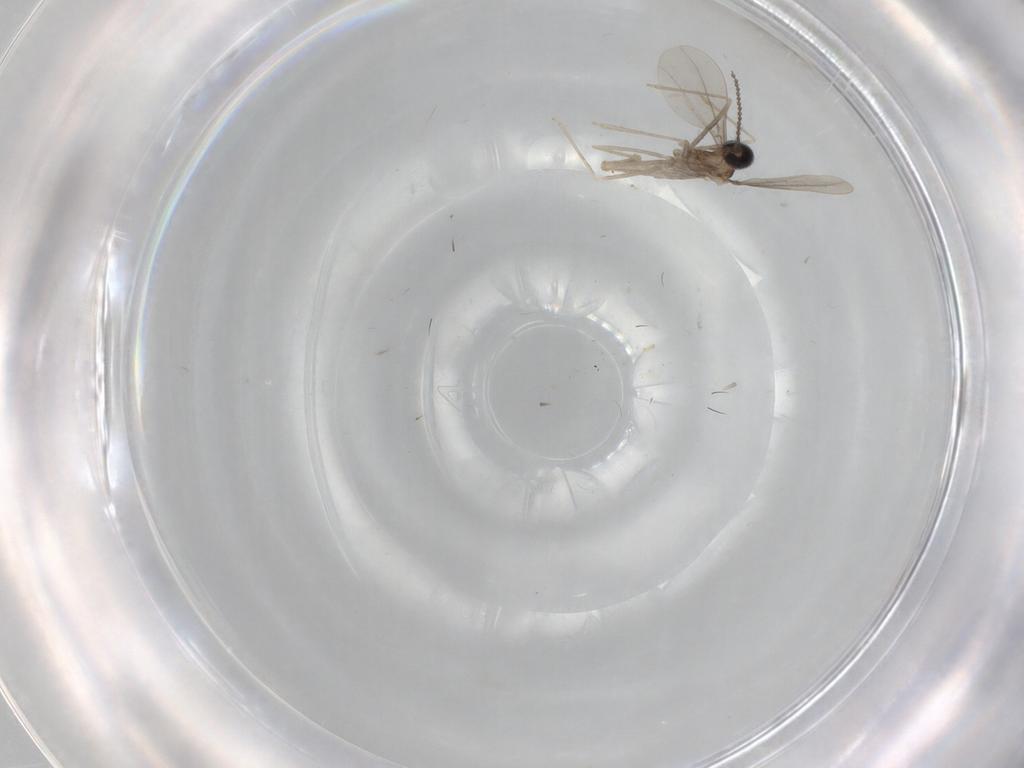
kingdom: Animalia
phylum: Arthropoda
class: Insecta
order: Diptera
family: Cecidomyiidae
